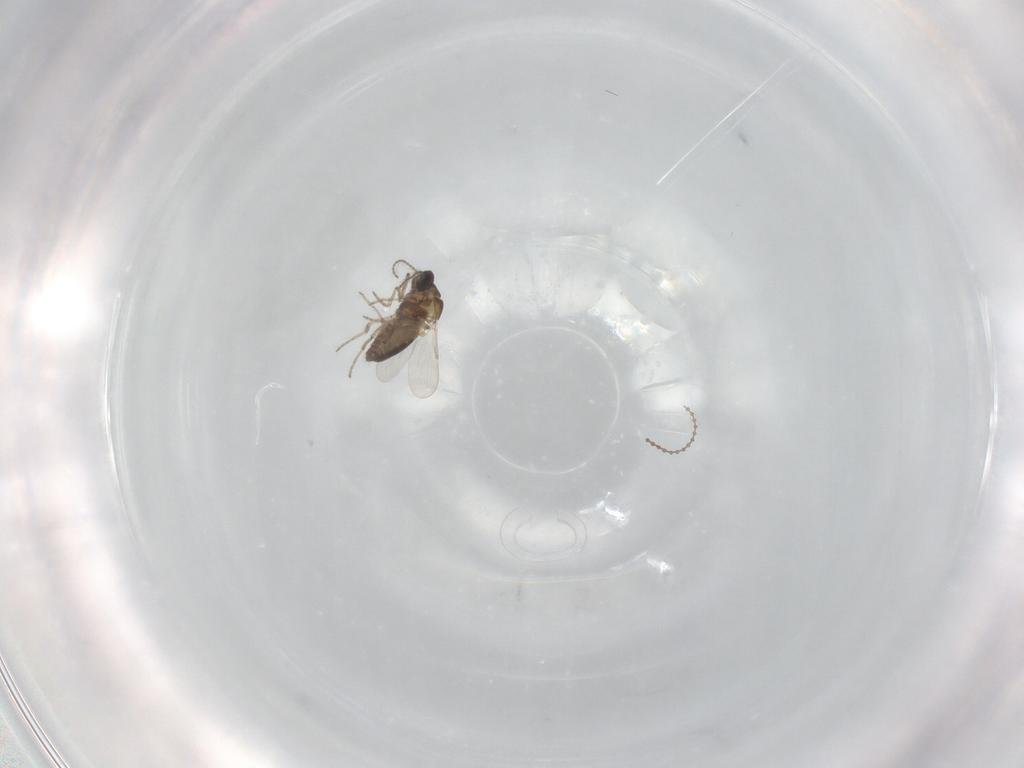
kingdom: Animalia
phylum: Arthropoda
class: Insecta
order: Diptera
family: Ceratopogonidae
